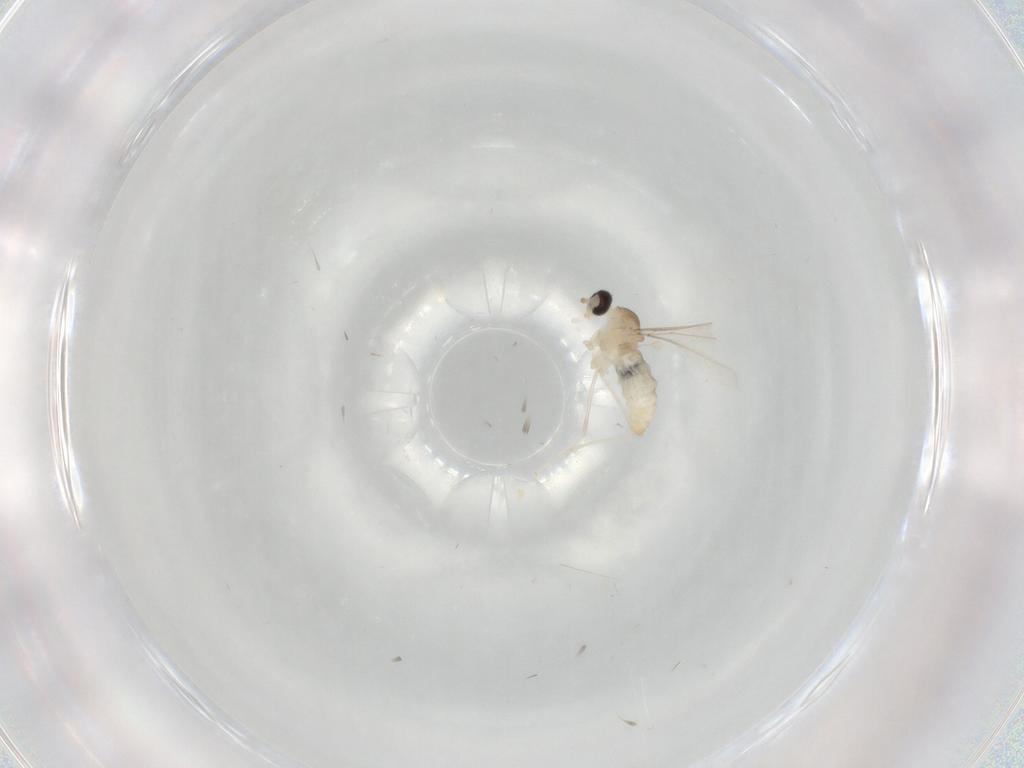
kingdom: Animalia
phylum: Arthropoda
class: Insecta
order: Diptera
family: Cecidomyiidae
